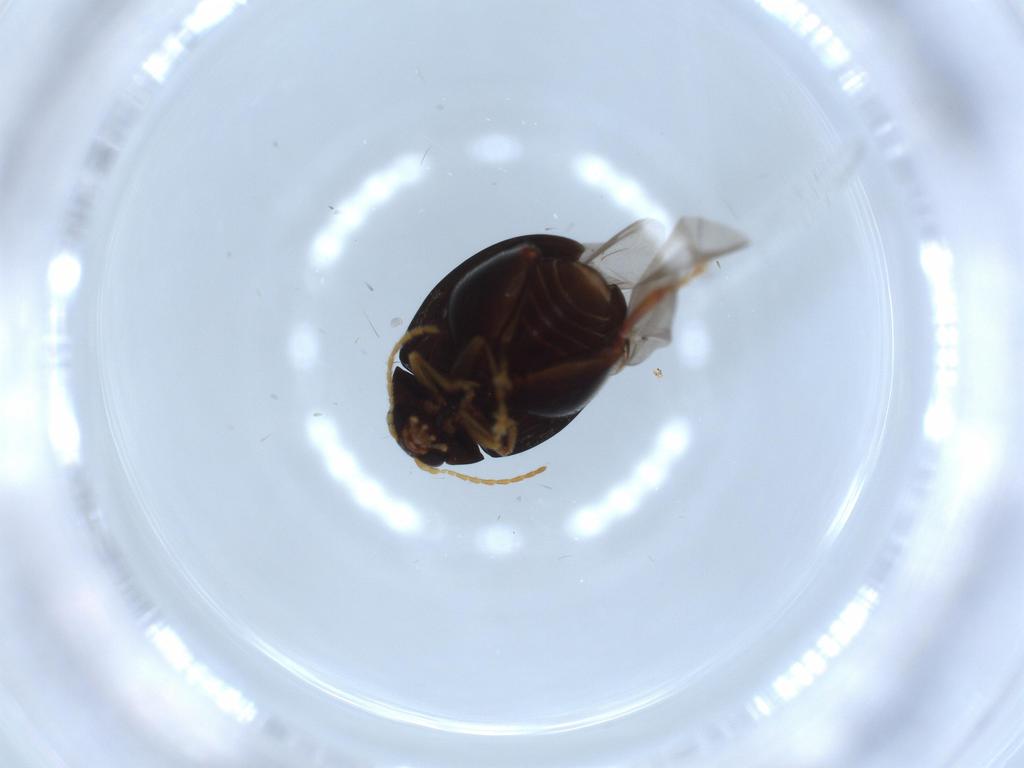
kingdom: Animalia
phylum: Arthropoda
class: Insecta
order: Coleoptera
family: Chrysomelidae
